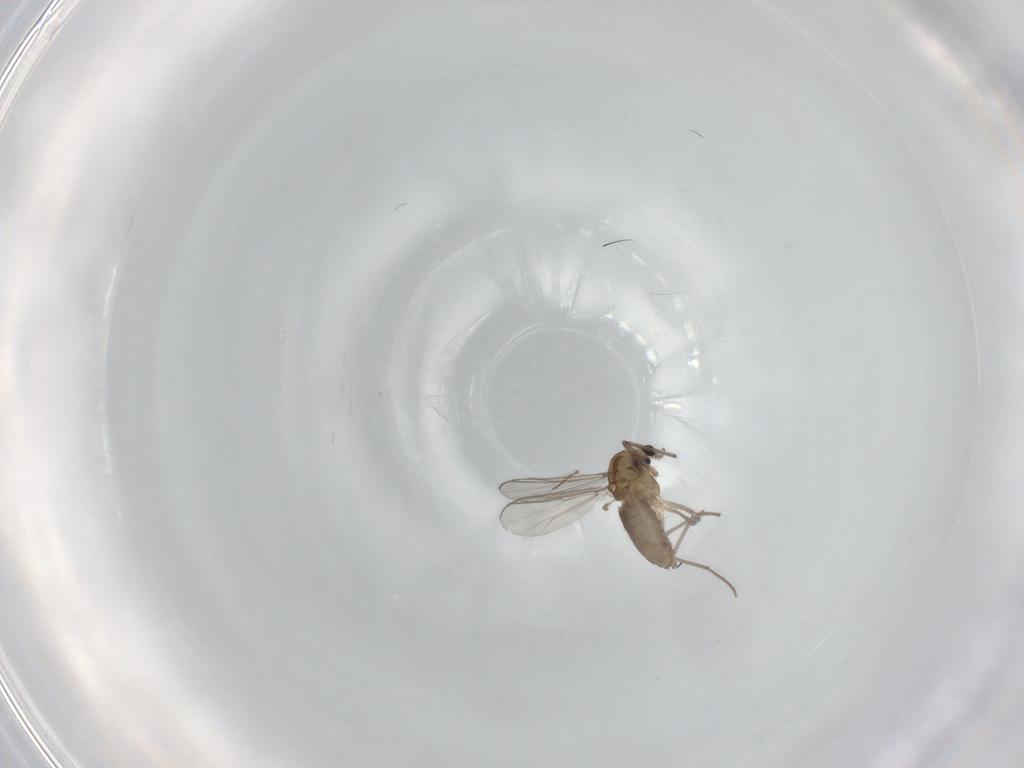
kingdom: Animalia
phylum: Arthropoda
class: Insecta
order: Diptera
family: Chironomidae
